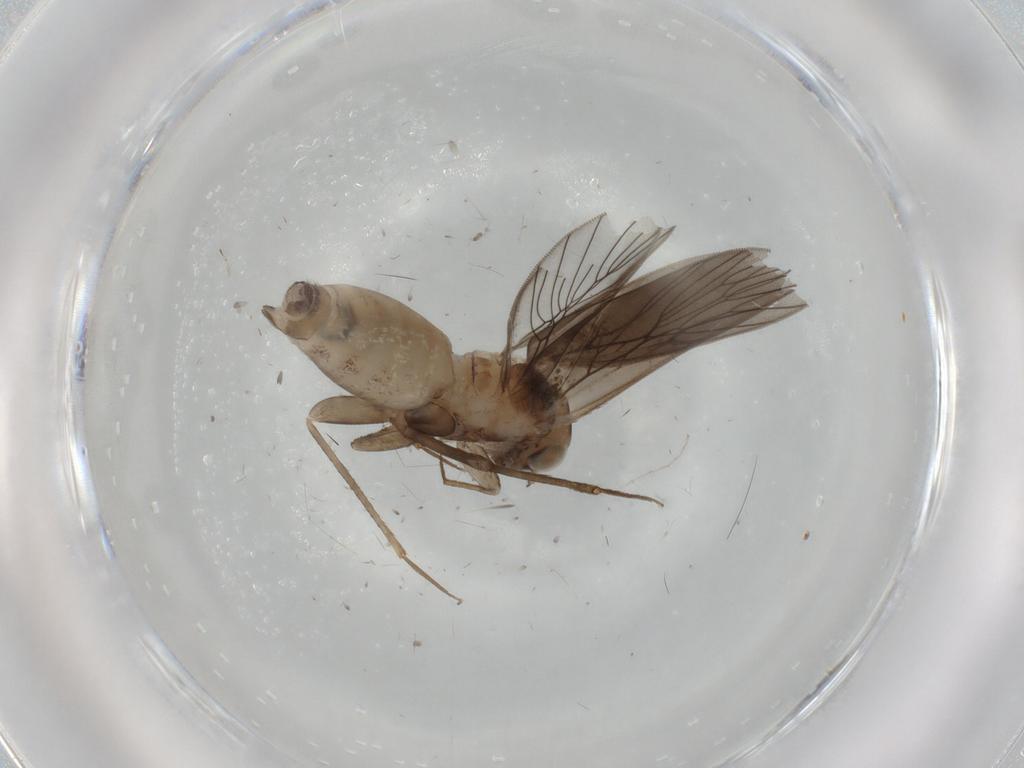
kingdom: Animalia
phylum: Arthropoda
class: Insecta
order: Psocodea
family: Lepidopsocidae
